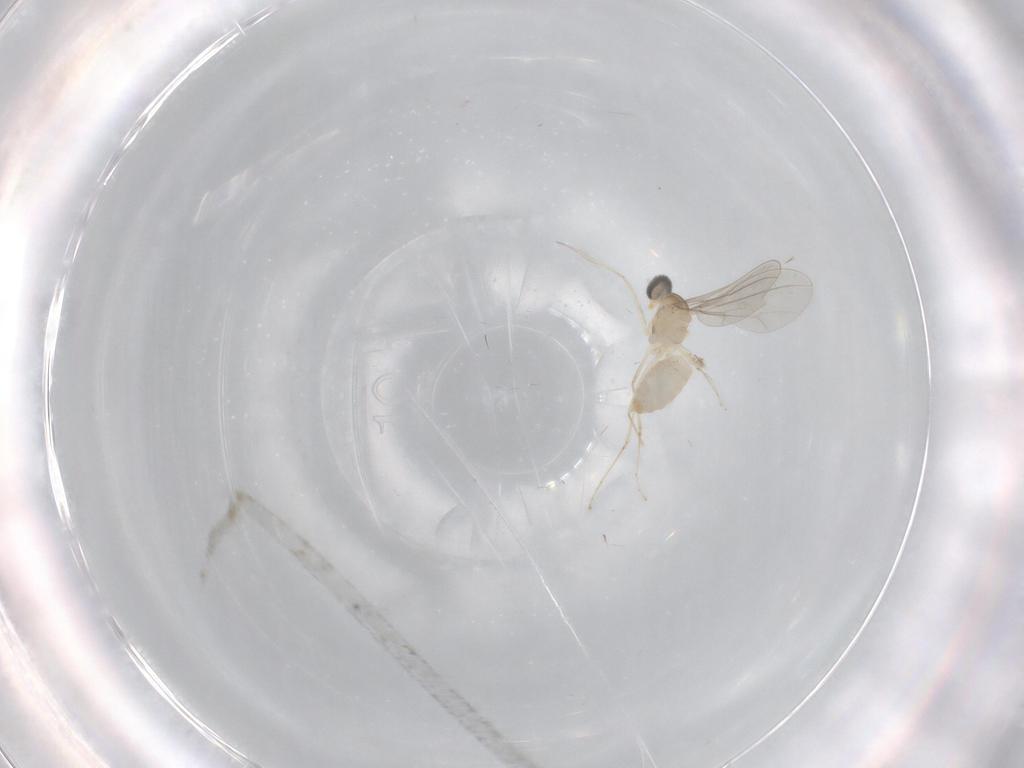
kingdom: Animalia
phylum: Arthropoda
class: Insecta
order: Diptera
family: Cecidomyiidae
